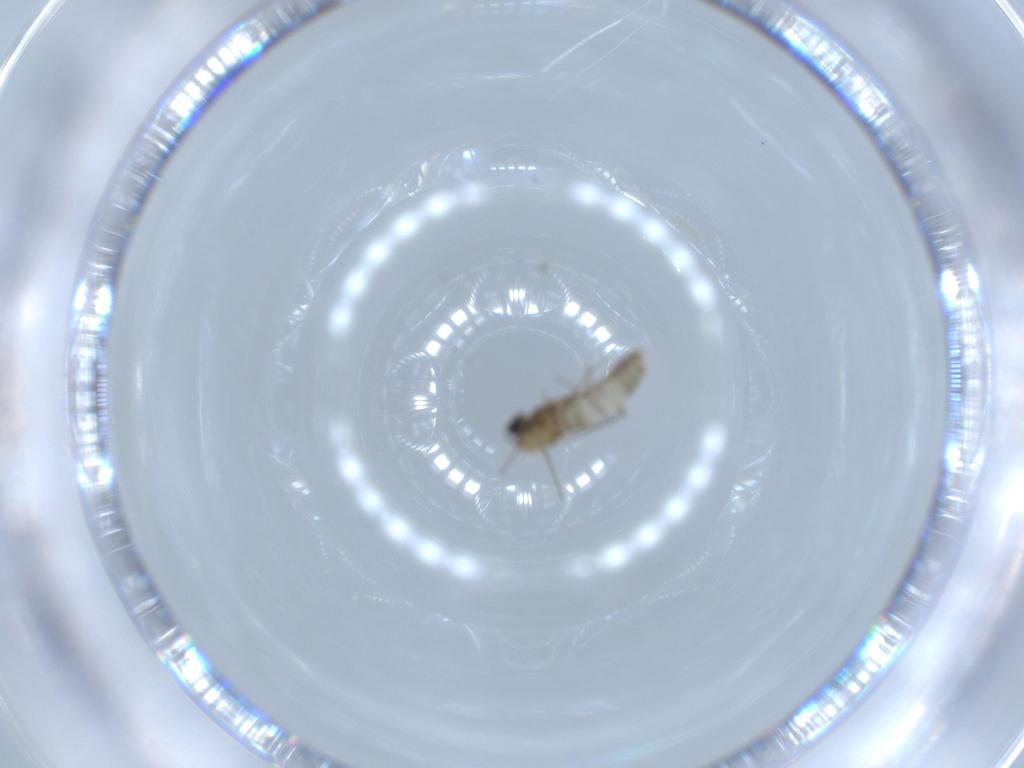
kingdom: Animalia
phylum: Arthropoda
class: Insecta
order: Diptera
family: Chironomidae
